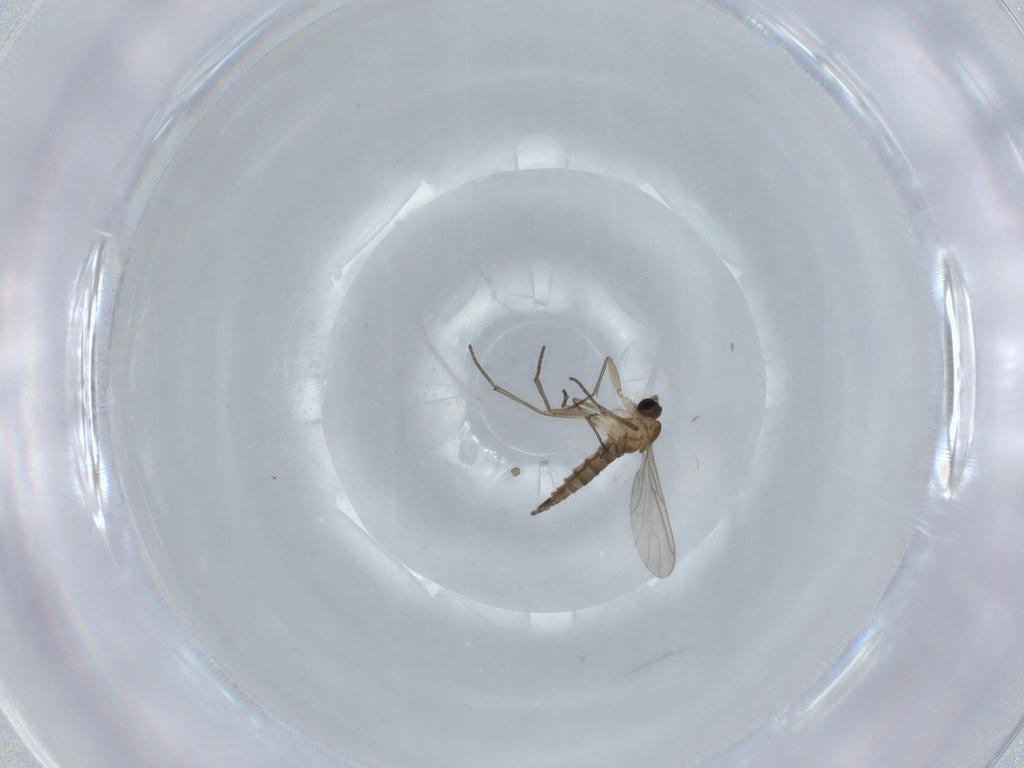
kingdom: Animalia
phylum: Arthropoda
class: Insecta
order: Diptera
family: Sciaridae
